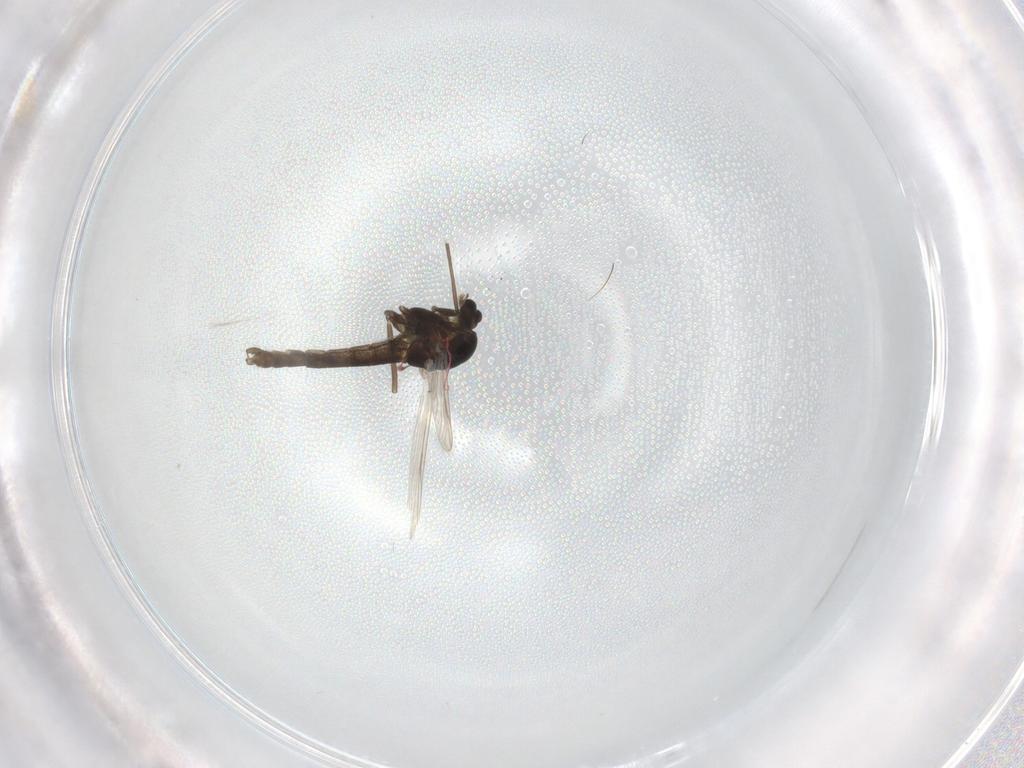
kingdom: Animalia
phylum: Arthropoda
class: Insecta
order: Diptera
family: Chironomidae
